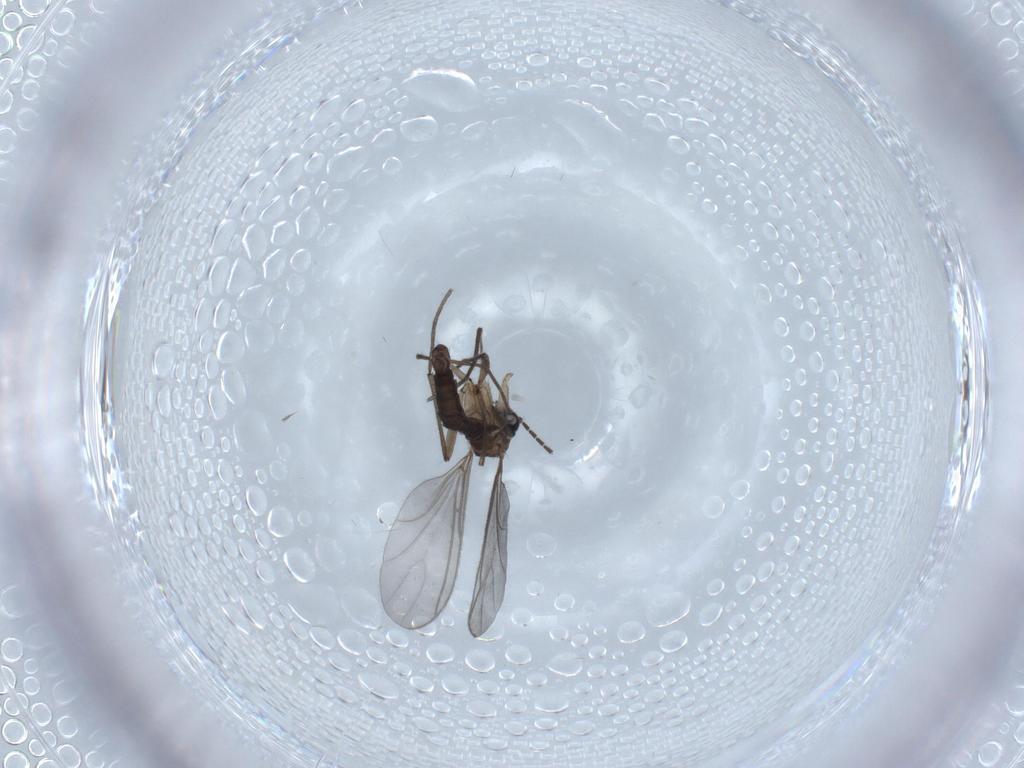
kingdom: Animalia
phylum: Arthropoda
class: Insecta
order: Diptera
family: Sciaridae
